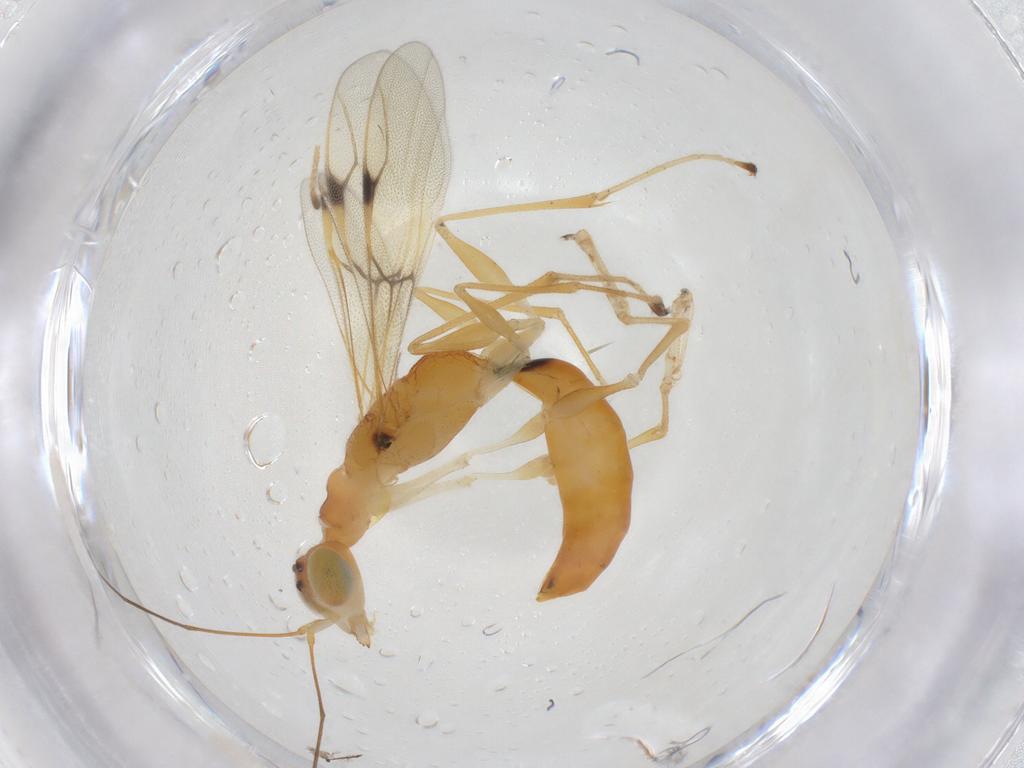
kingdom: Animalia
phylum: Arthropoda
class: Insecta
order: Hymenoptera
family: Dryinidae
